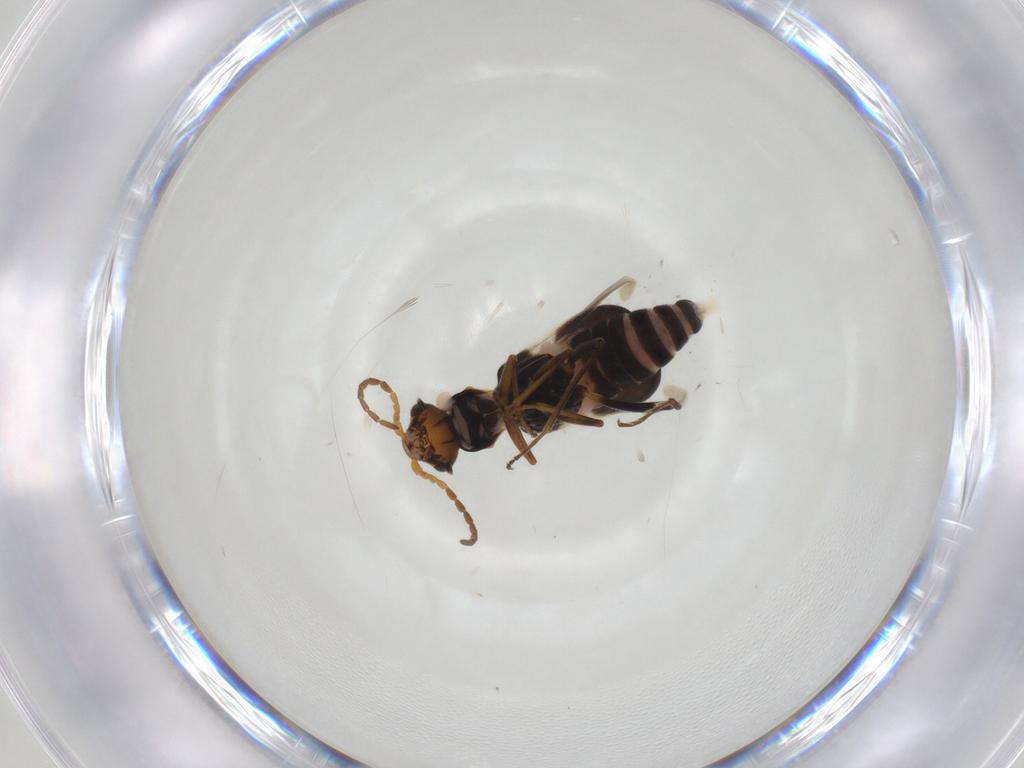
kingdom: Animalia
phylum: Arthropoda
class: Insecta
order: Coleoptera
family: Melyridae
